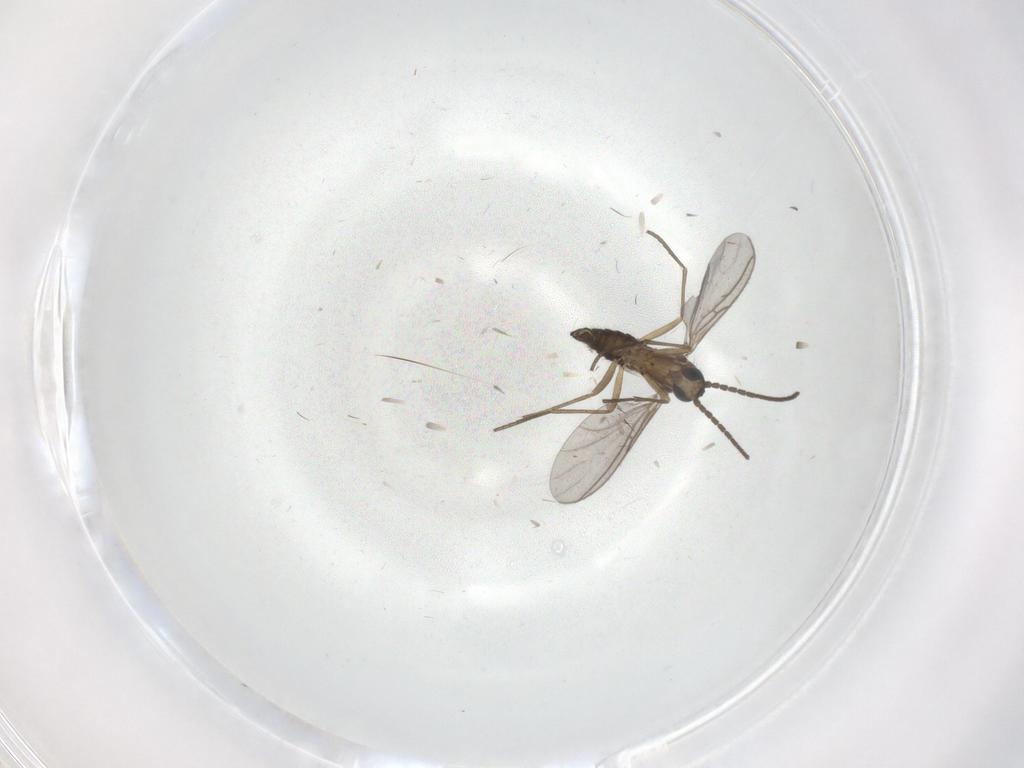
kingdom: Animalia
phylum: Arthropoda
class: Insecta
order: Diptera
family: Sciaridae
